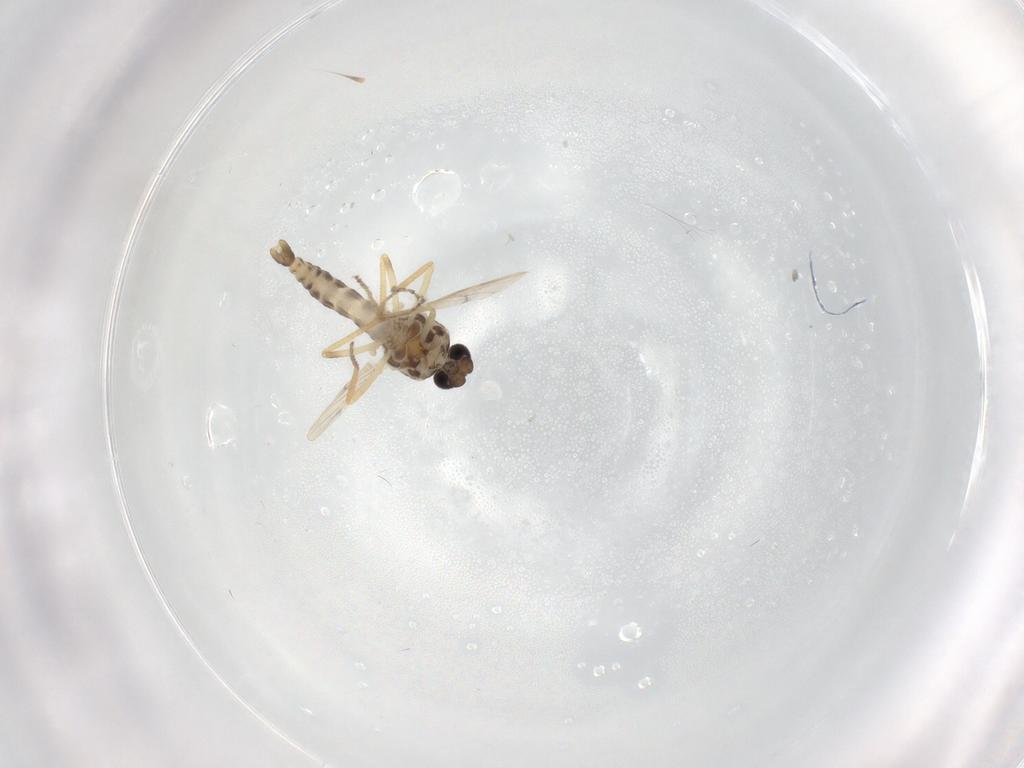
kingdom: Animalia
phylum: Arthropoda
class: Insecta
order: Diptera
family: Ceratopogonidae
